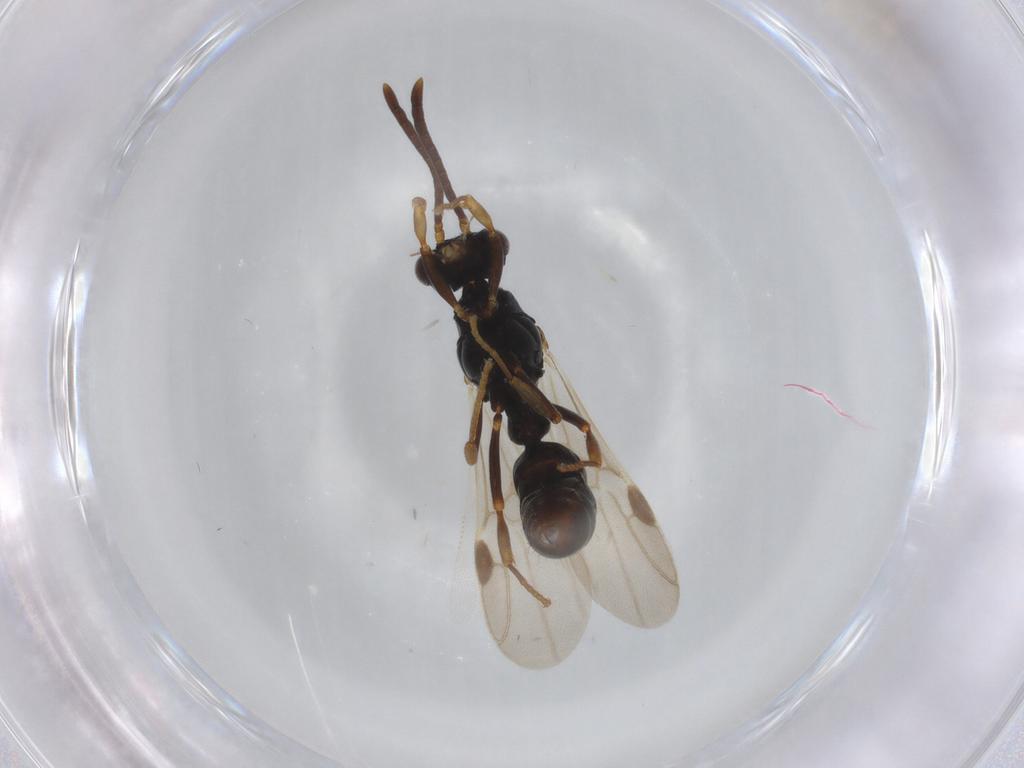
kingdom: Animalia
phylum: Arthropoda
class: Insecta
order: Hymenoptera
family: Formicidae
